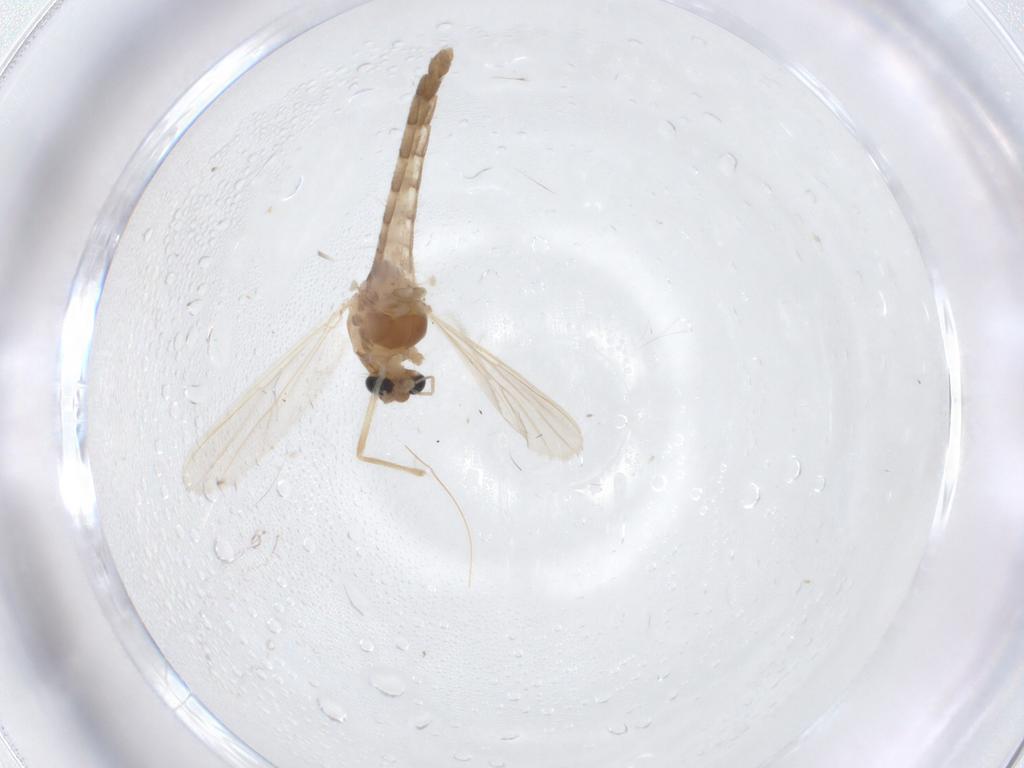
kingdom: Animalia
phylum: Arthropoda
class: Insecta
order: Diptera
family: Chironomidae
